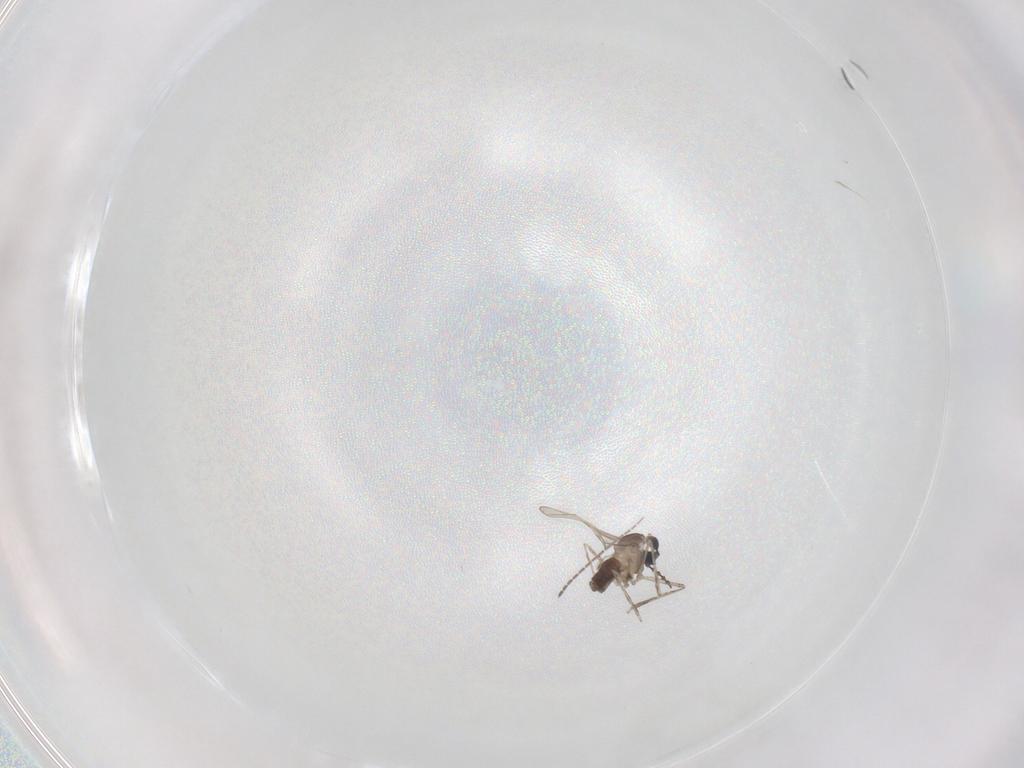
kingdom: Animalia
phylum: Arthropoda
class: Insecta
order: Diptera
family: Cecidomyiidae
